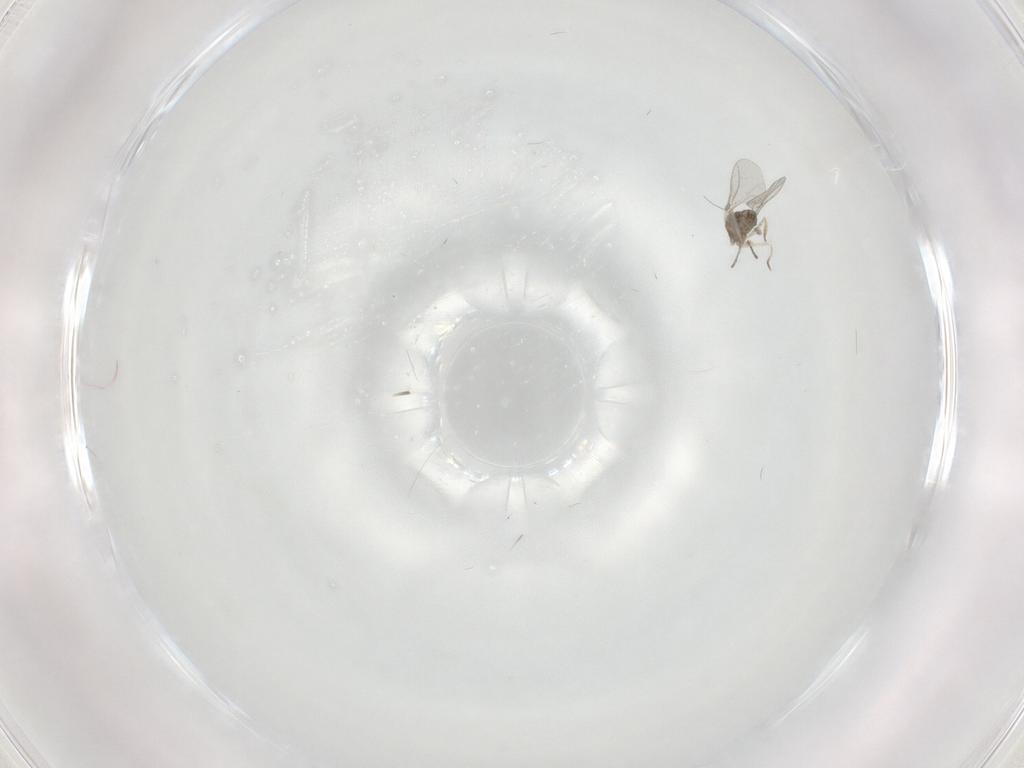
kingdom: Animalia
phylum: Arthropoda
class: Insecta
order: Diptera
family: Cecidomyiidae
